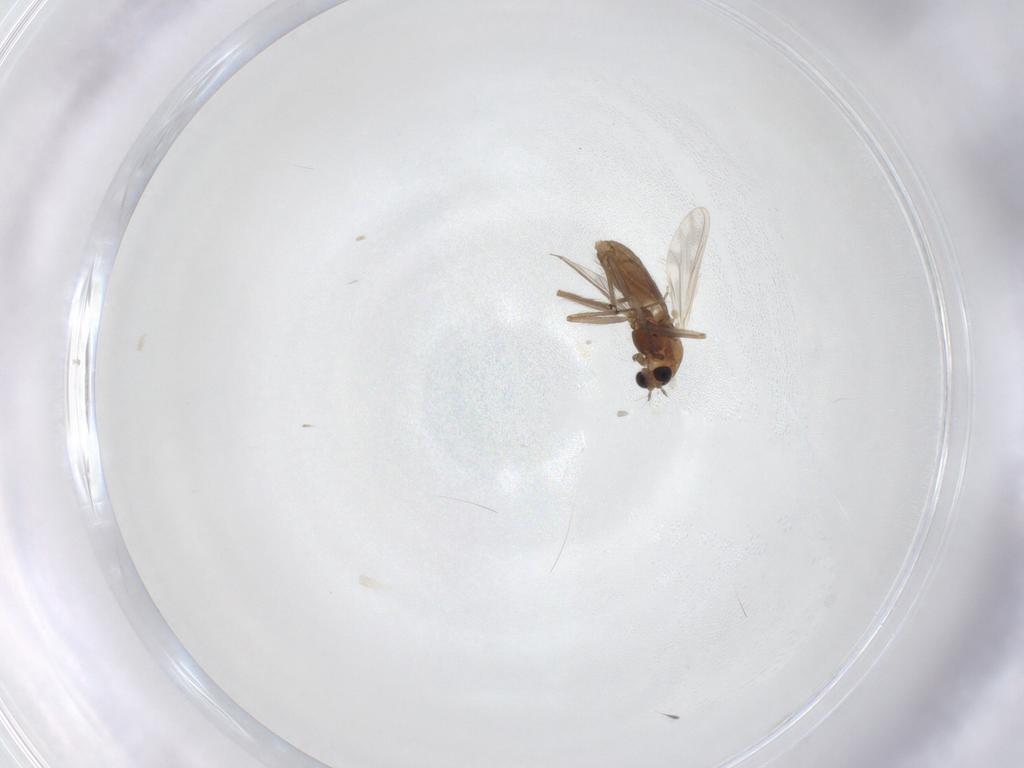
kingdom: Animalia
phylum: Arthropoda
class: Insecta
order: Diptera
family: Chironomidae
